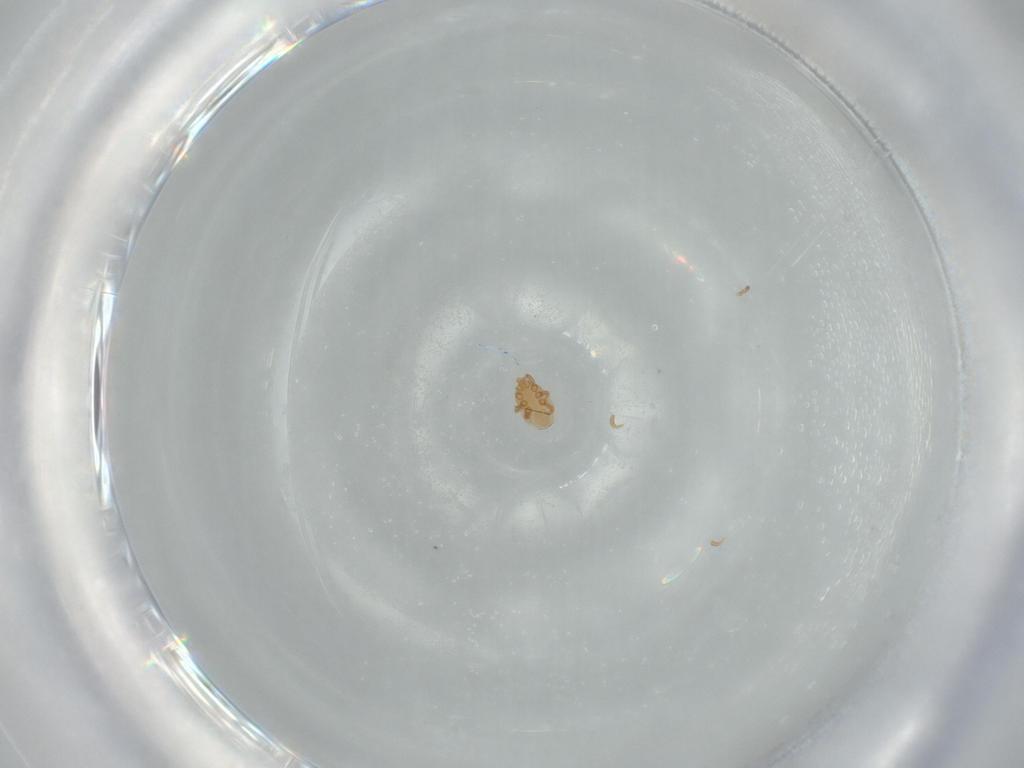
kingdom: Animalia
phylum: Arthropoda
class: Arachnida
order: Mesostigmata
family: Dinychidae
